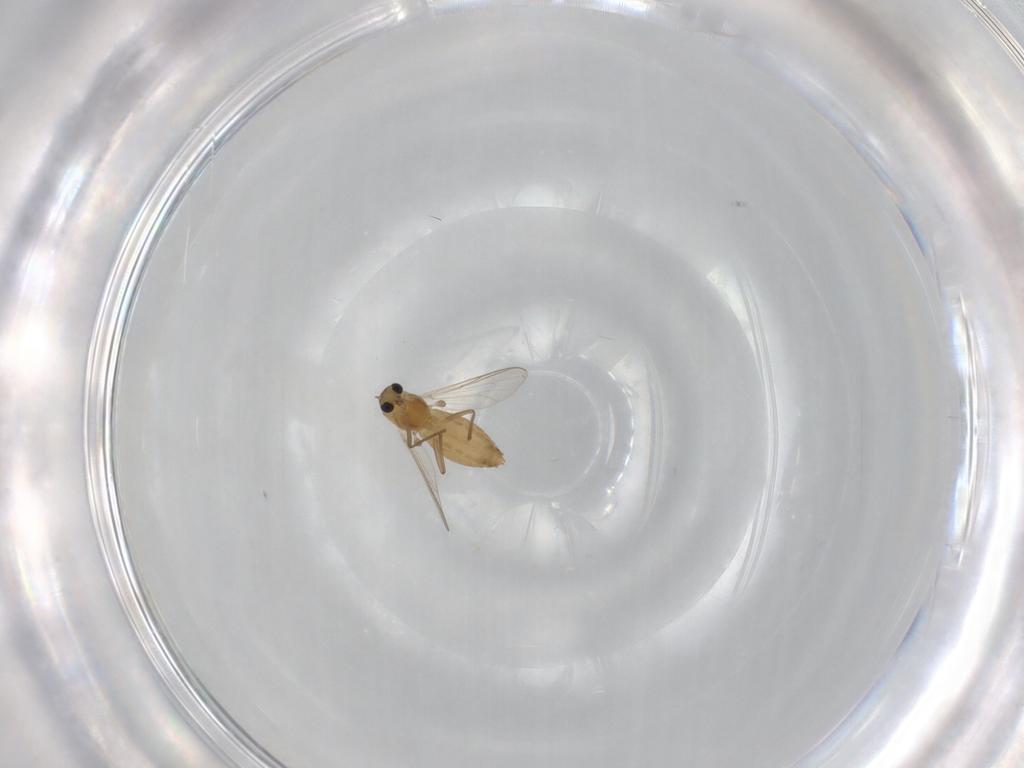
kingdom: Animalia
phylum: Arthropoda
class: Insecta
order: Diptera
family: Chironomidae
